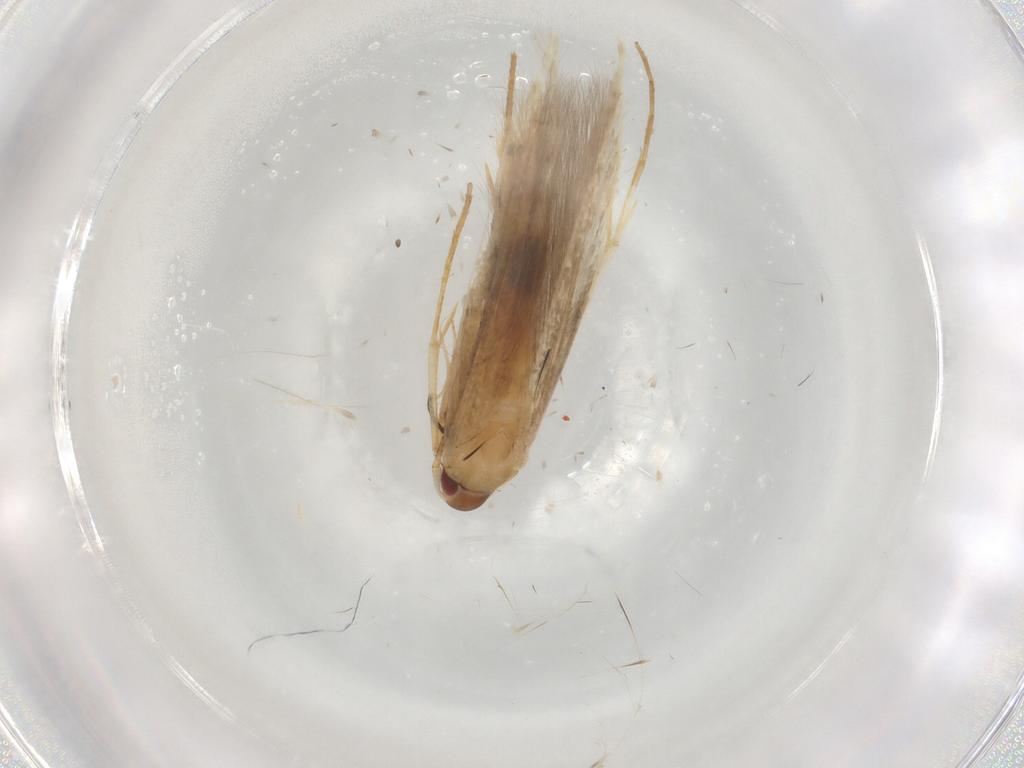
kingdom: Animalia
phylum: Arthropoda
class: Insecta
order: Lepidoptera
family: Cosmopterigidae
